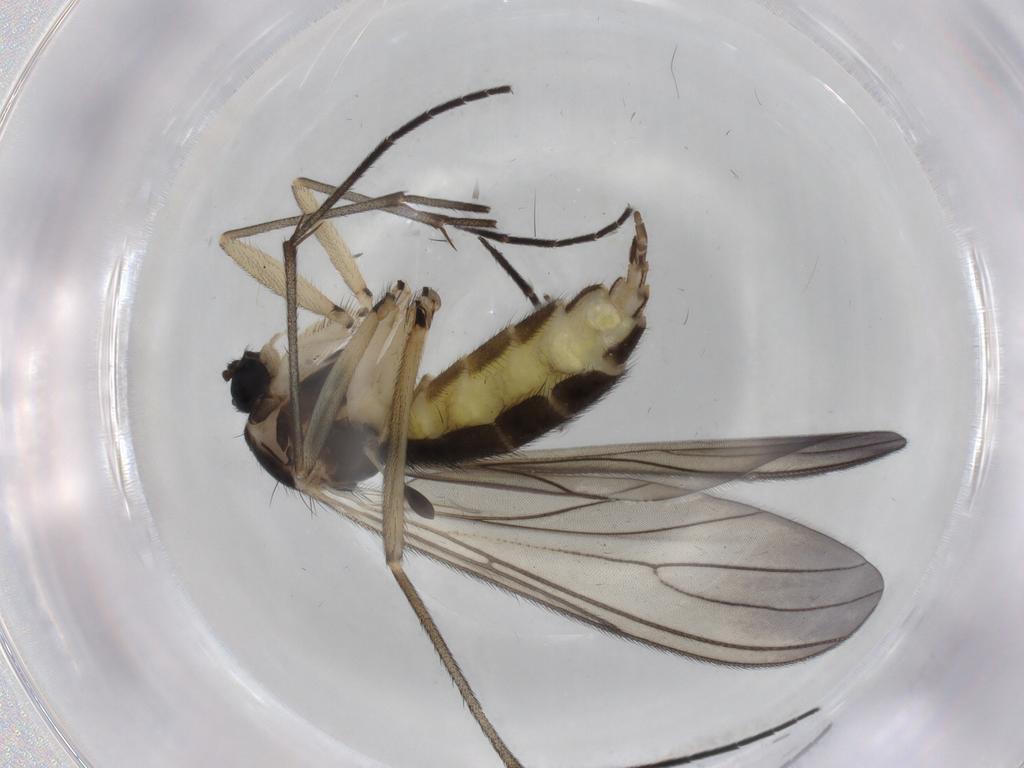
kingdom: Animalia
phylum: Arthropoda
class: Insecta
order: Diptera
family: Sciaridae
